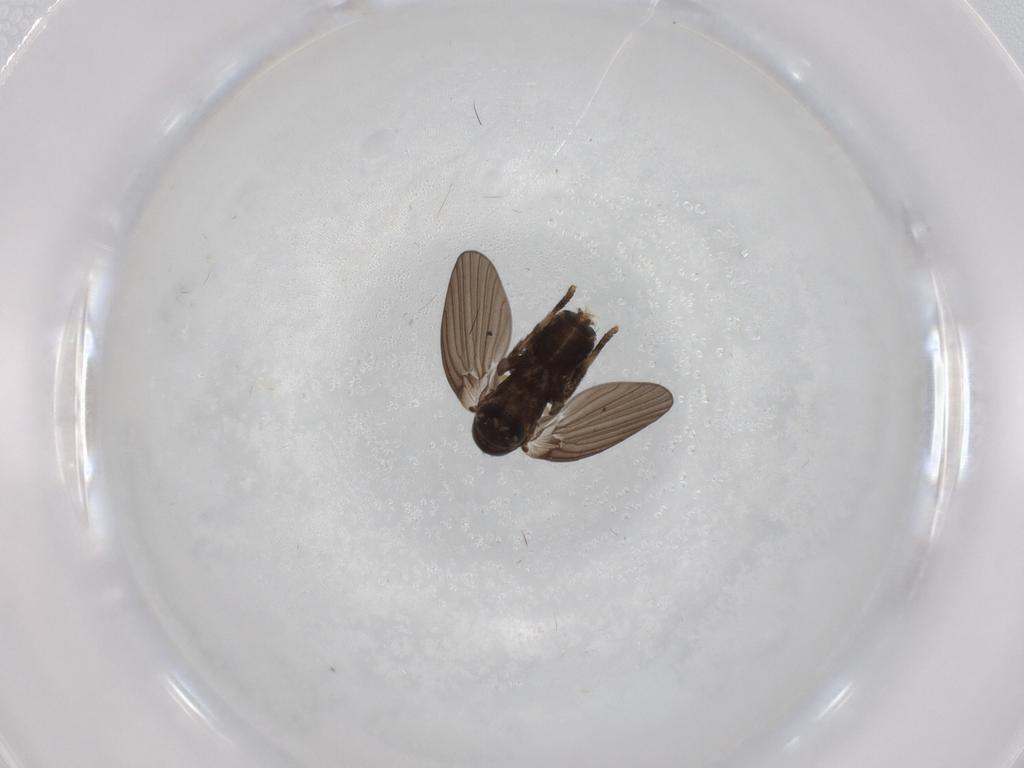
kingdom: Animalia
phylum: Arthropoda
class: Insecta
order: Diptera
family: Psychodidae
